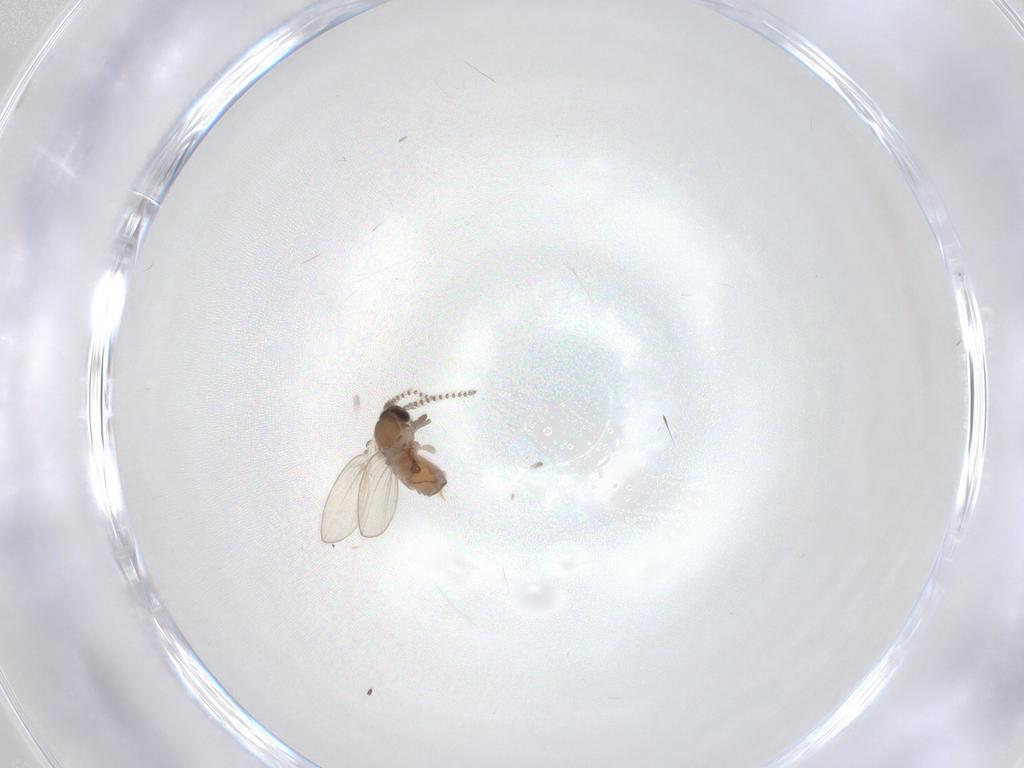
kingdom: Animalia
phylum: Arthropoda
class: Insecta
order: Diptera
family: Psychodidae
